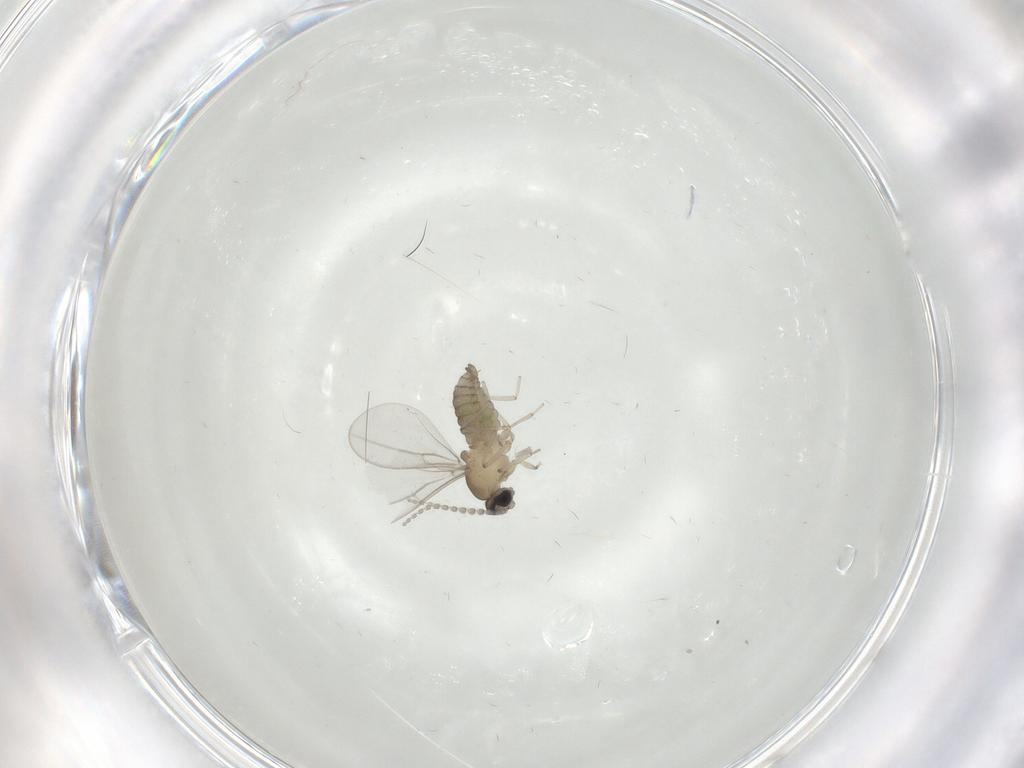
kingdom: Animalia
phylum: Arthropoda
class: Insecta
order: Diptera
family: Cecidomyiidae
